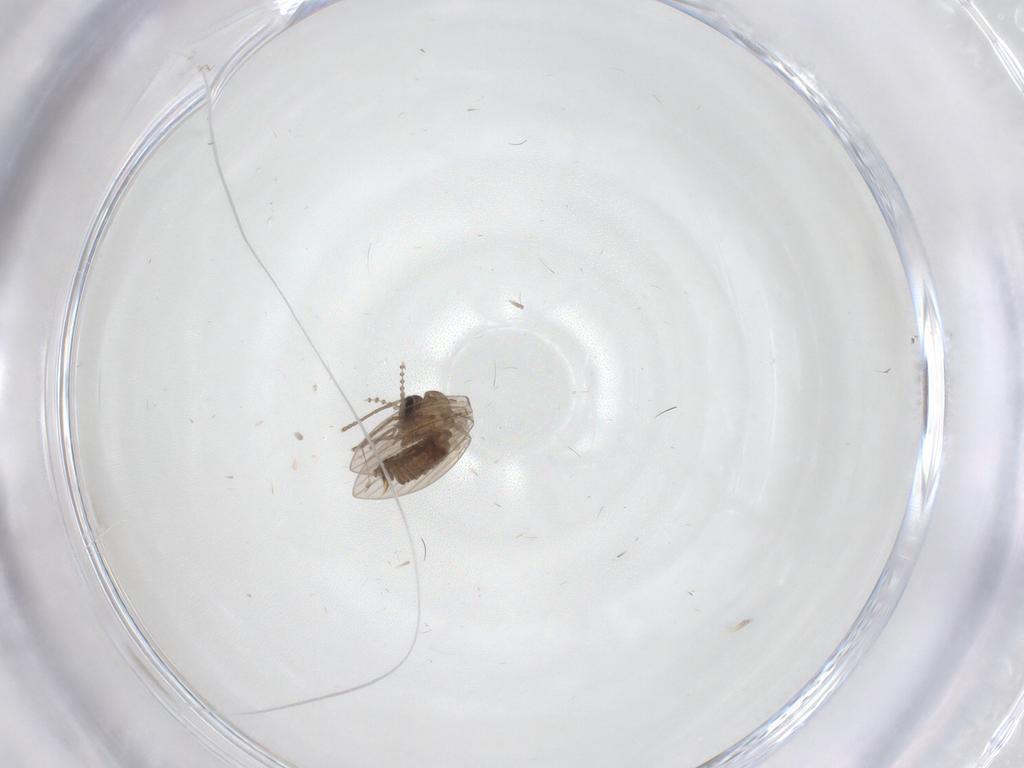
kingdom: Animalia
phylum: Arthropoda
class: Insecta
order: Diptera
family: Psychodidae
